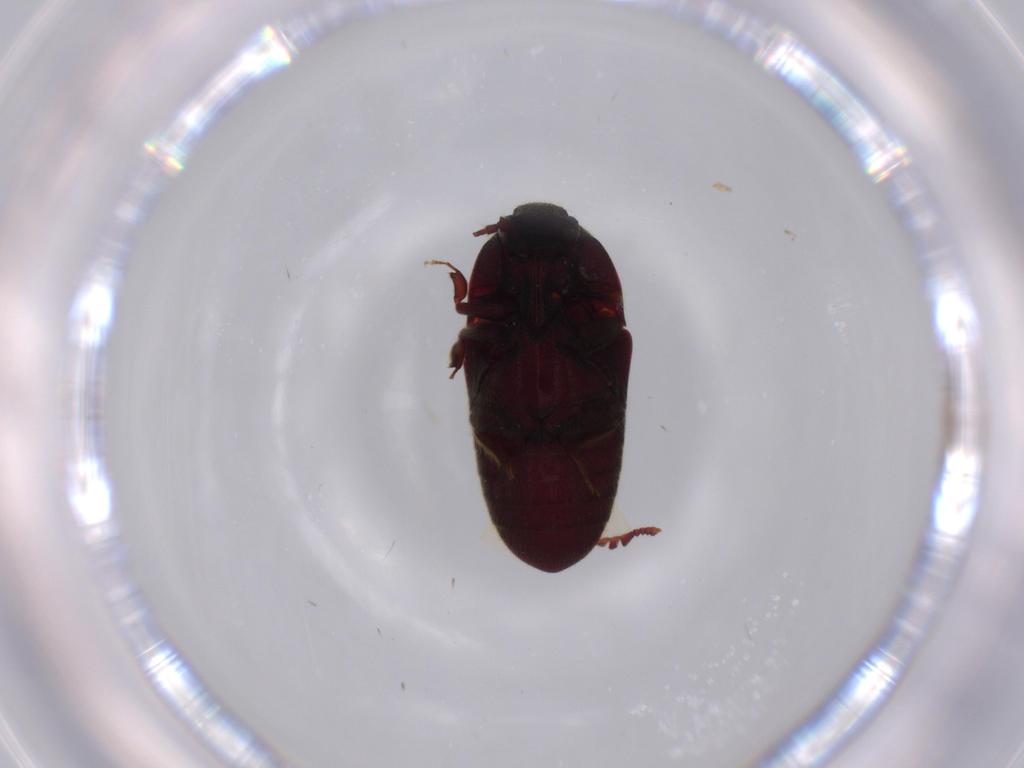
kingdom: Animalia
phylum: Arthropoda
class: Insecta
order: Coleoptera
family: Throscidae
